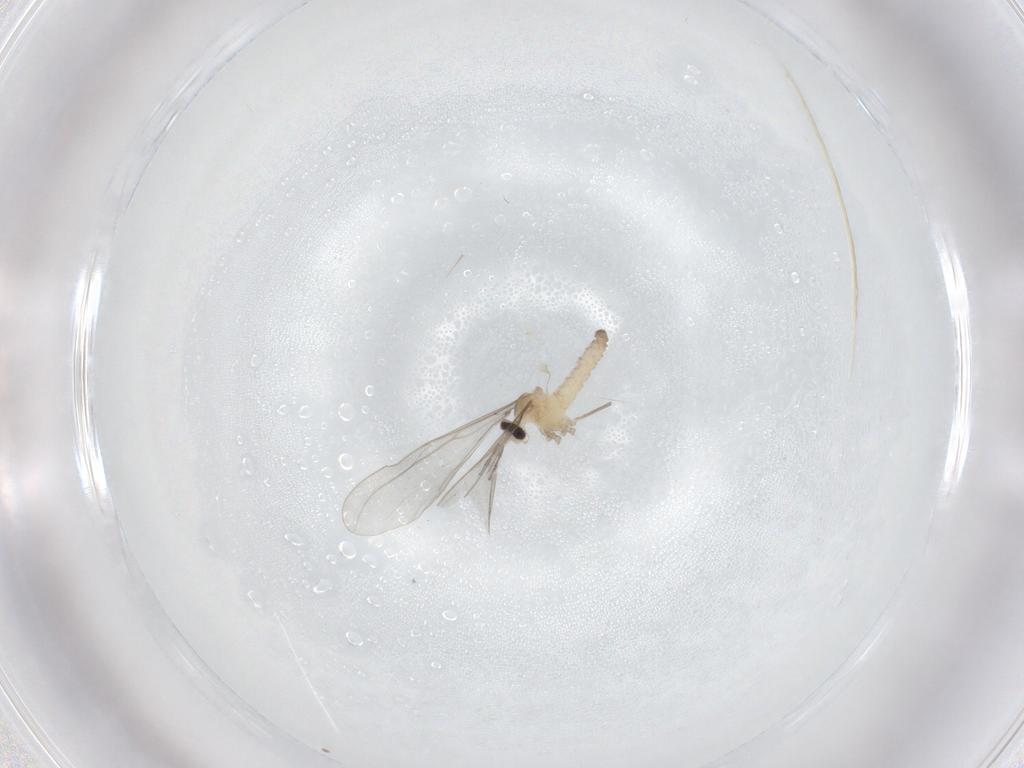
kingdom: Animalia
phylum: Arthropoda
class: Insecta
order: Diptera
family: Cecidomyiidae
